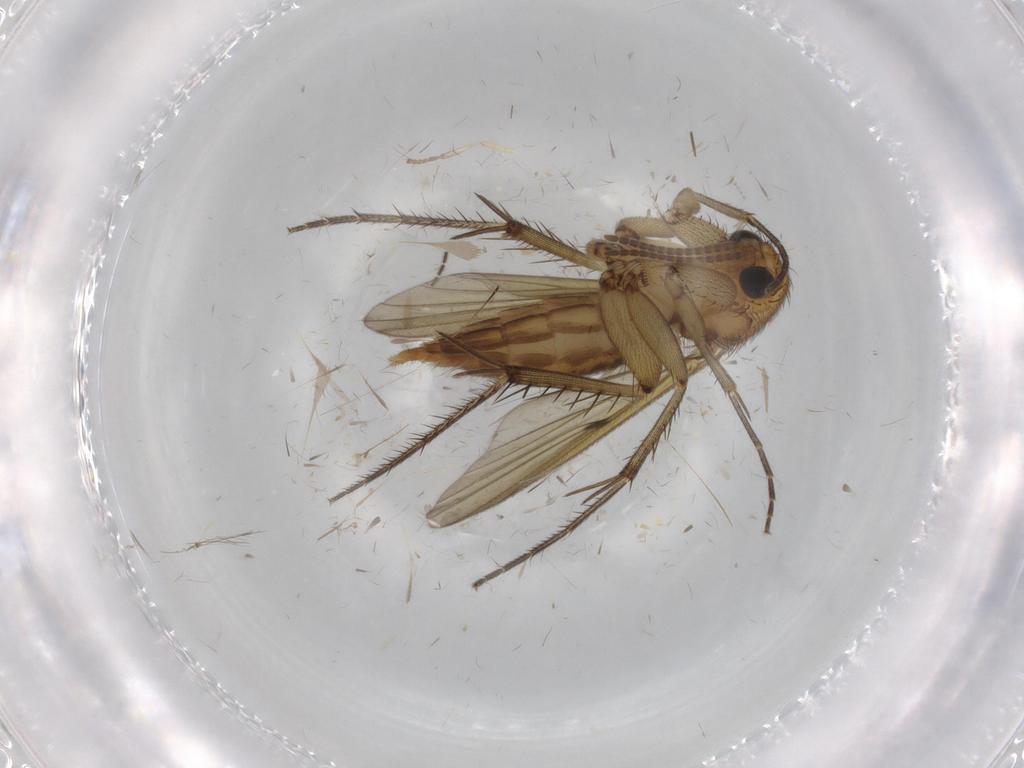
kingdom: Animalia
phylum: Arthropoda
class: Insecta
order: Diptera
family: Mycetophilidae
